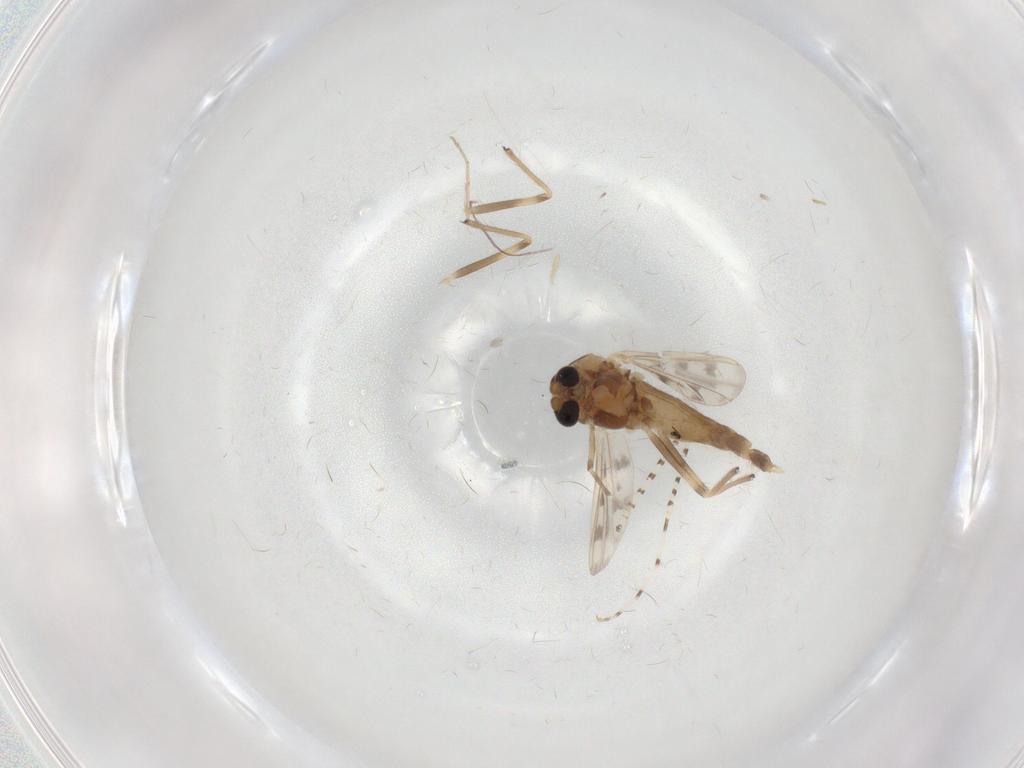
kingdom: Animalia
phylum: Arthropoda
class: Insecta
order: Diptera
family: Chironomidae
